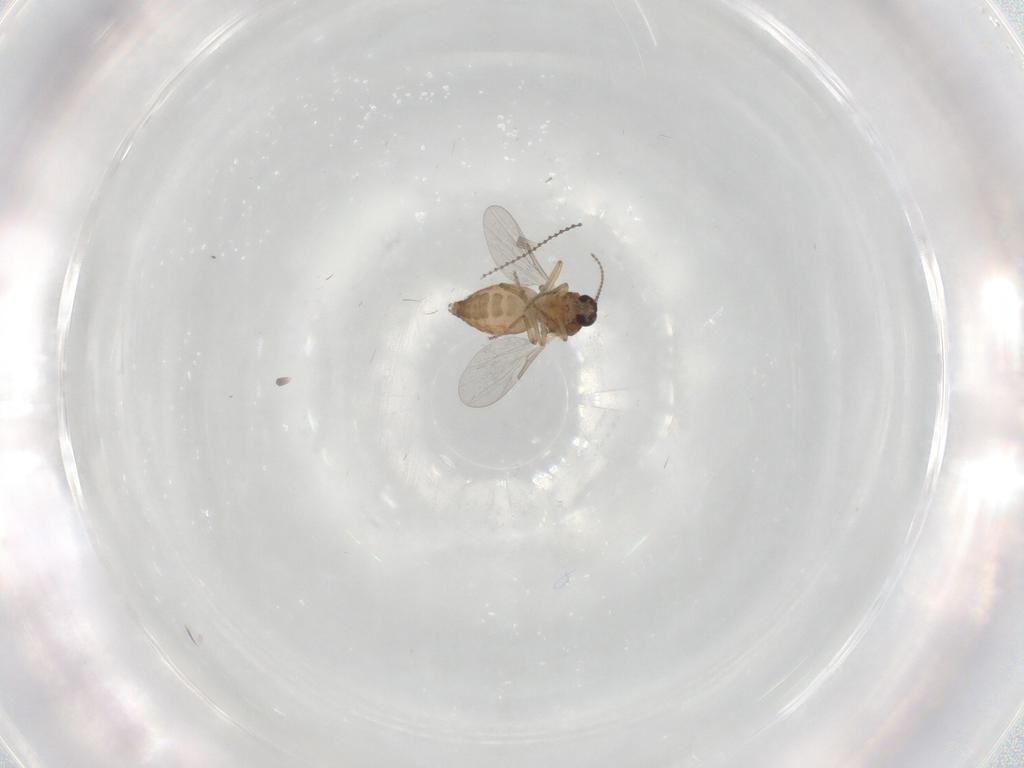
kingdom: Animalia
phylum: Arthropoda
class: Insecta
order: Diptera
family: Cecidomyiidae
